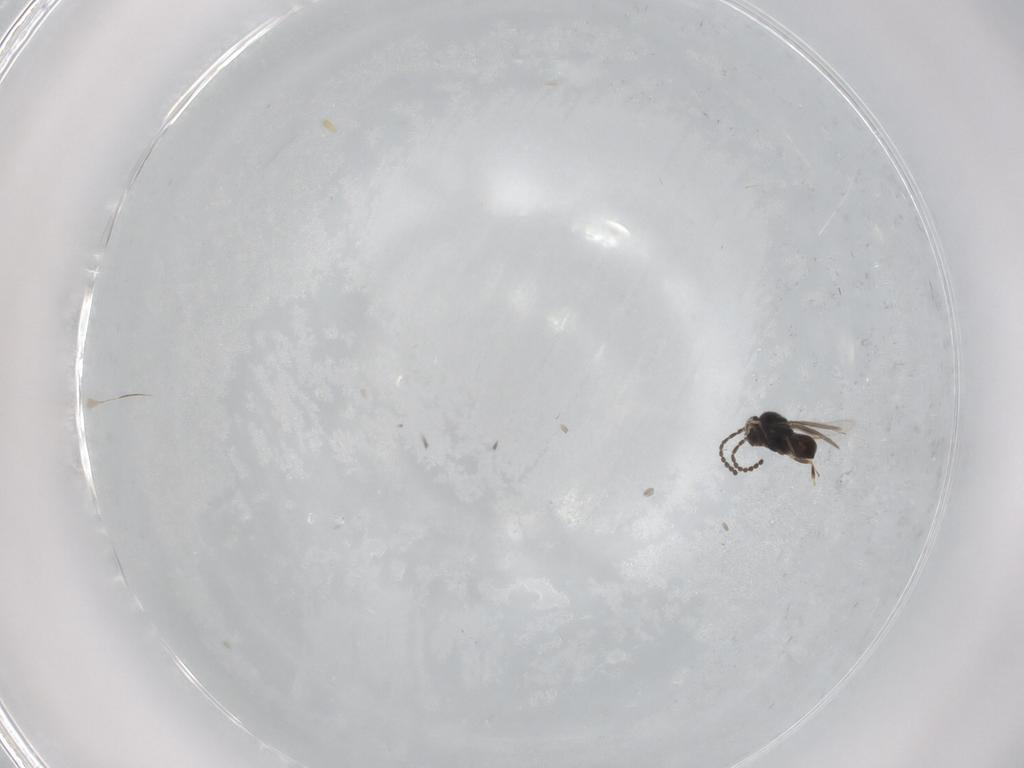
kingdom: Animalia
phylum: Arthropoda
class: Insecta
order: Hymenoptera
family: Scelionidae
